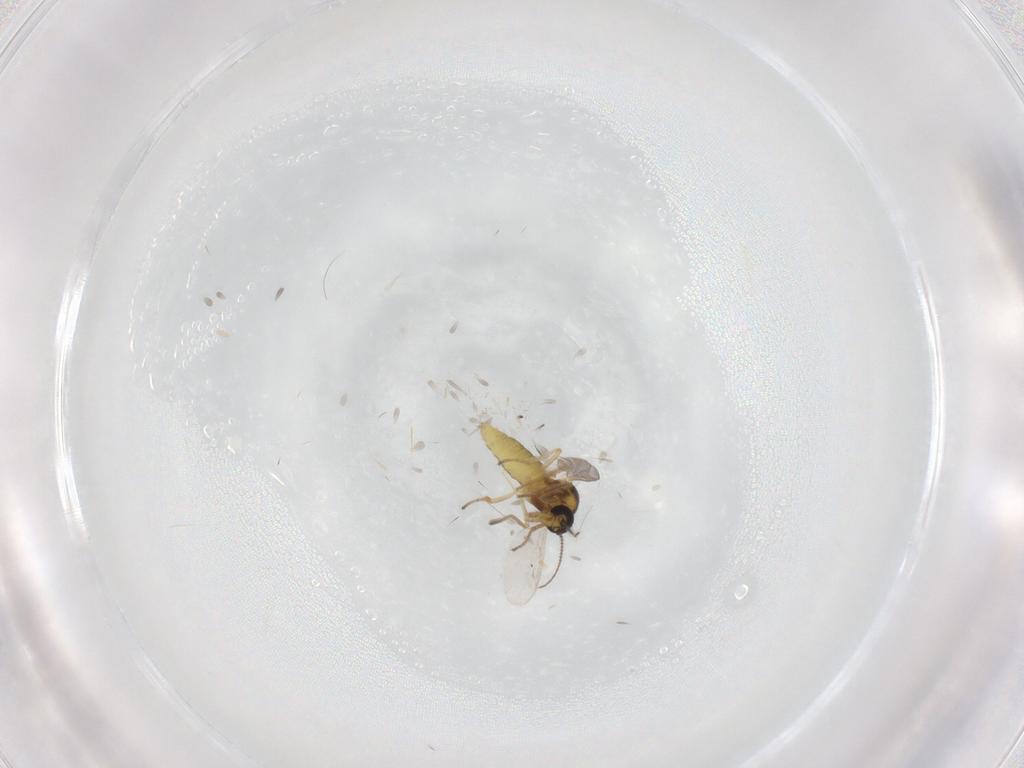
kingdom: Animalia
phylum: Arthropoda
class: Insecta
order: Diptera
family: Ceratopogonidae
